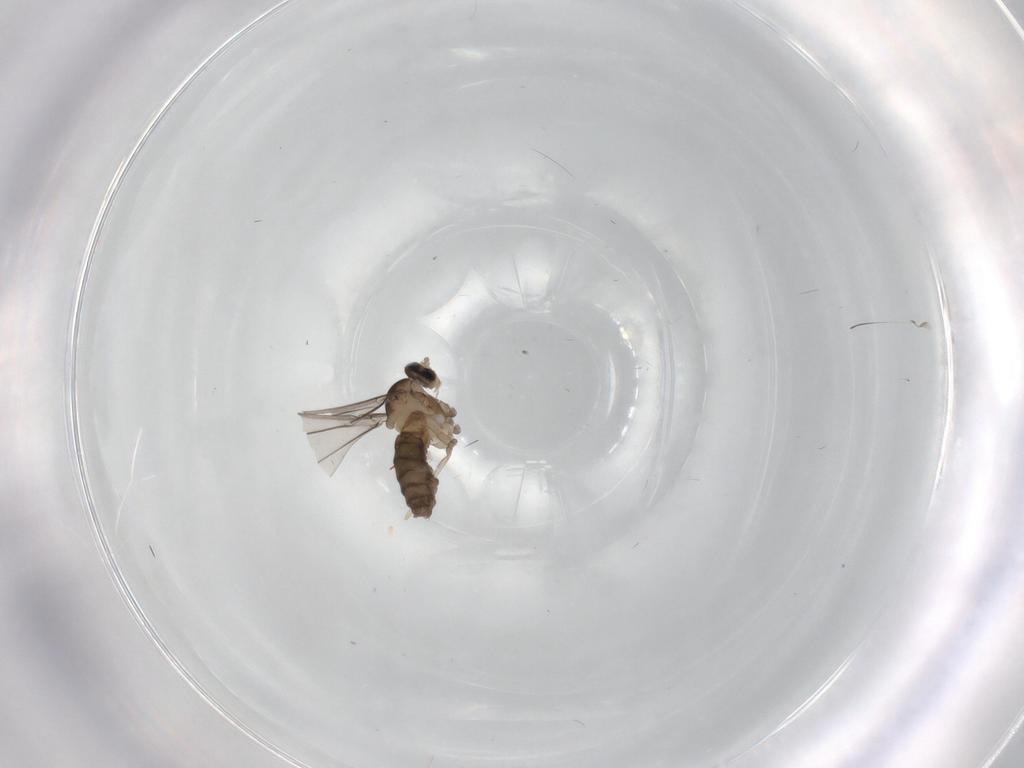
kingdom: Animalia
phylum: Arthropoda
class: Insecta
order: Diptera
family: Cecidomyiidae
